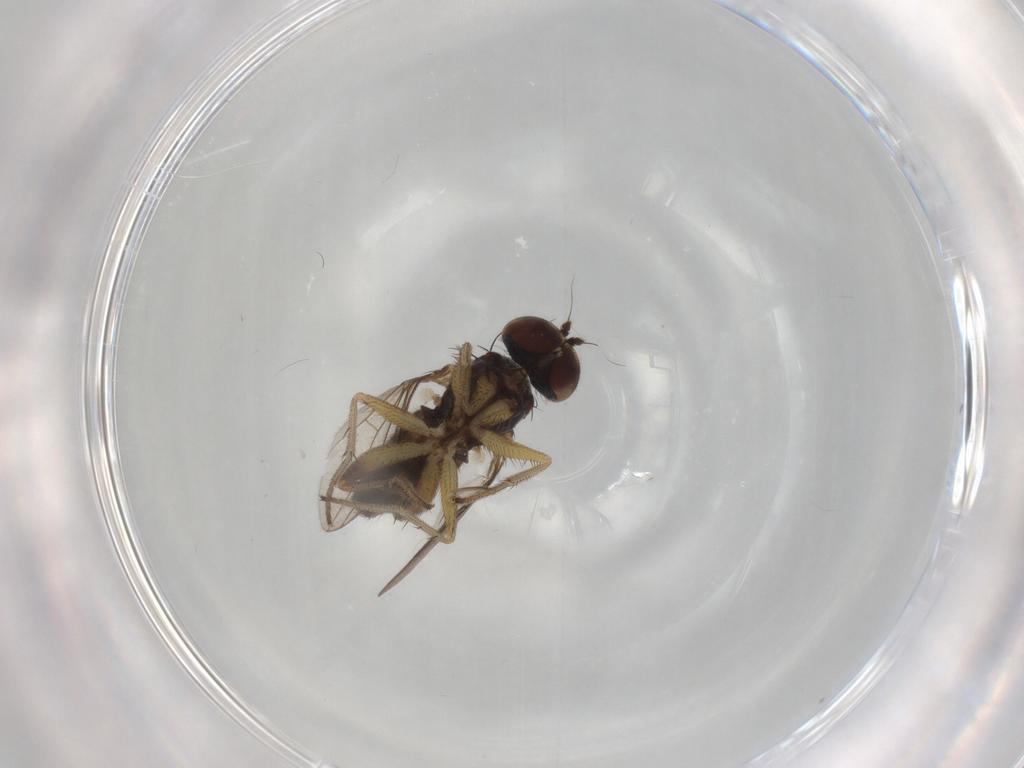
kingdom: Animalia
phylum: Arthropoda
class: Insecta
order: Diptera
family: Dolichopodidae
